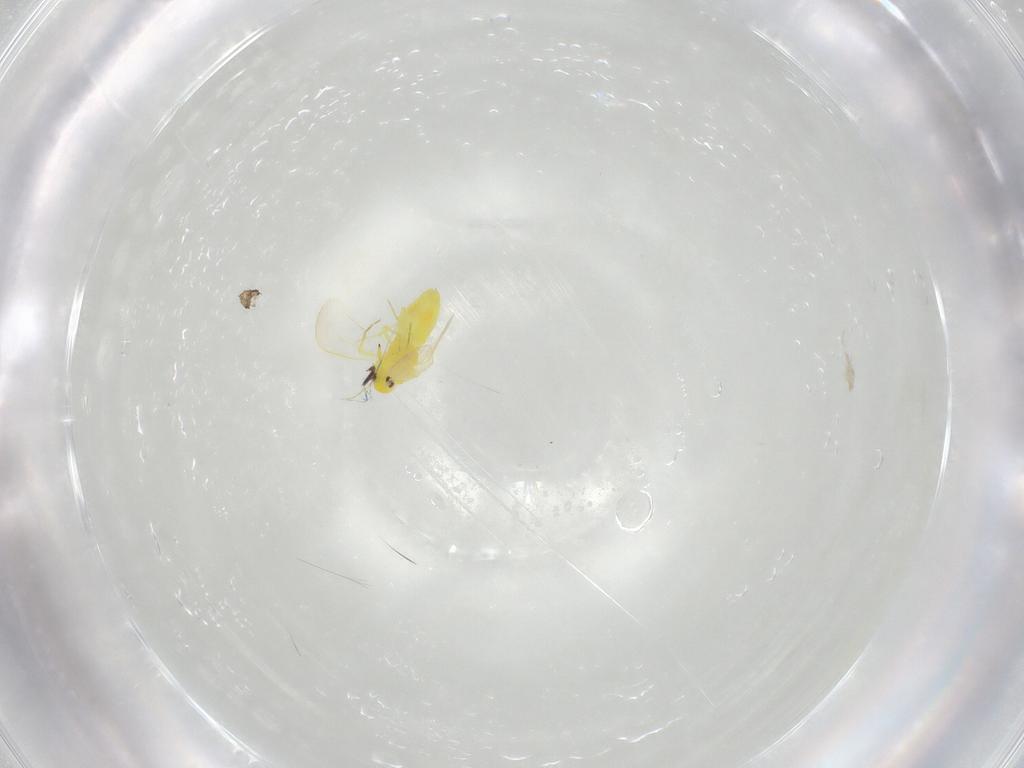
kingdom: Animalia
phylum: Arthropoda
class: Insecta
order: Hemiptera
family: Aleyrodidae
